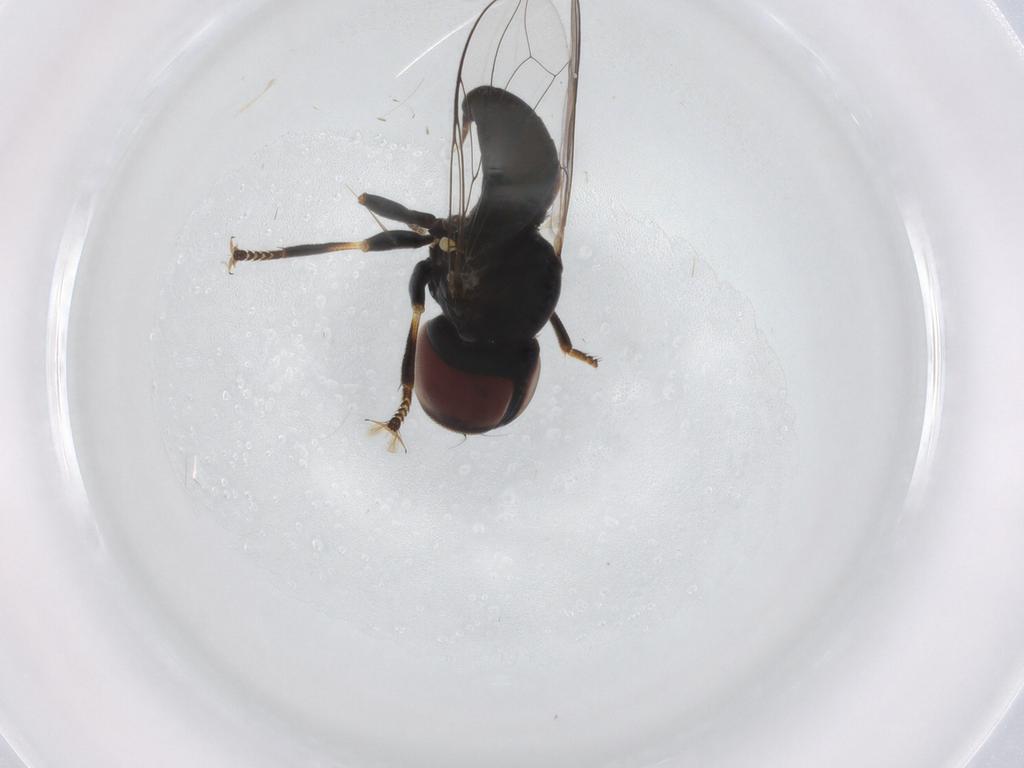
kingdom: Animalia
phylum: Arthropoda
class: Insecta
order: Diptera
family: Pipunculidae
